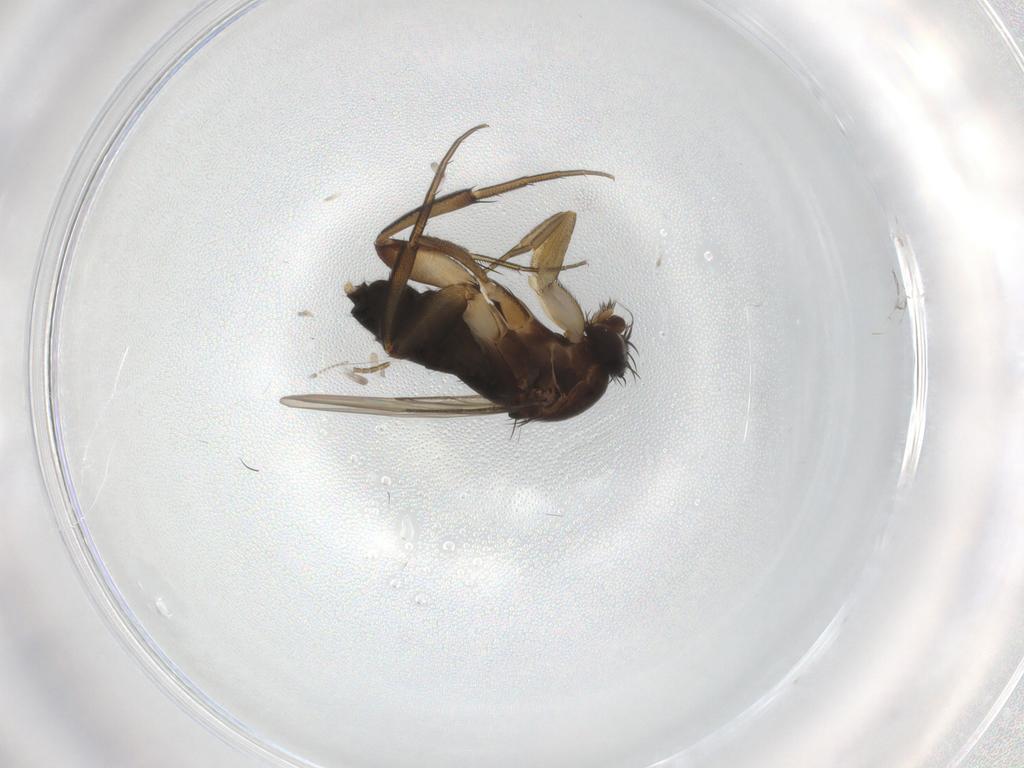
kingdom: Animalia
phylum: Arthropoda
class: Insecta
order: Diptera
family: Phoridae
